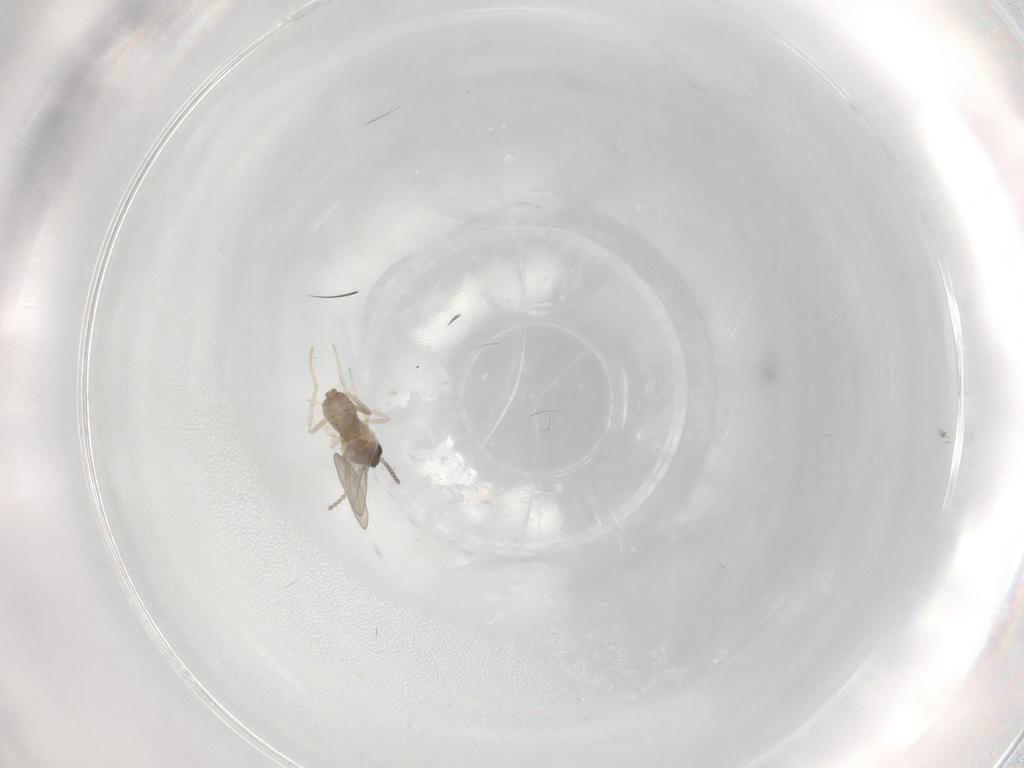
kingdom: Animalia
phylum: Arthropoda
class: Insecta
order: Diptera
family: Cecidomyiidae
